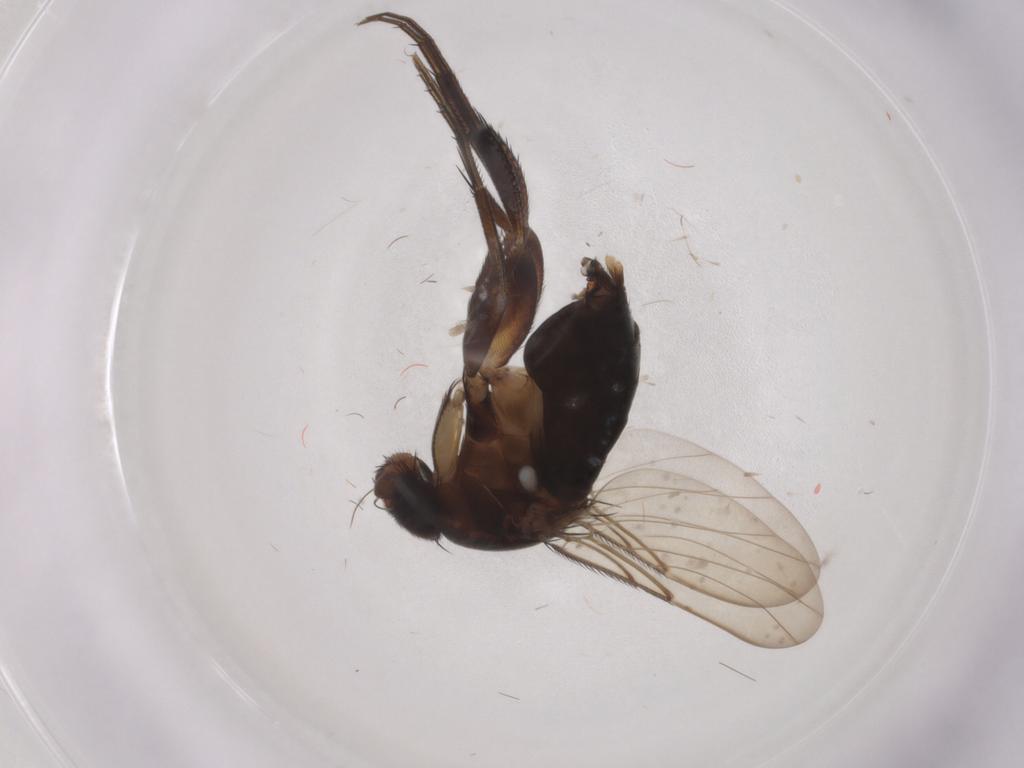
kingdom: Animalia
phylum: Arthropoda
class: Insecta
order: Diptera
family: Phoridae
